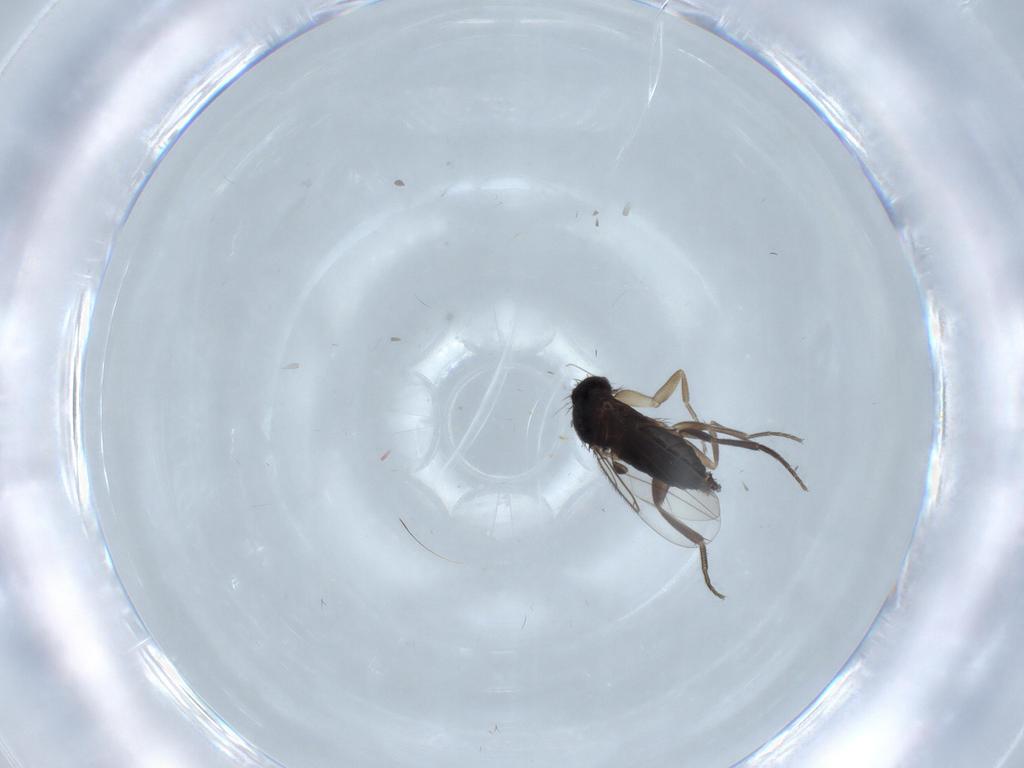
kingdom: Animalia
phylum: Arthropoda
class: Insecta
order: Diptera
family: Phoridae
